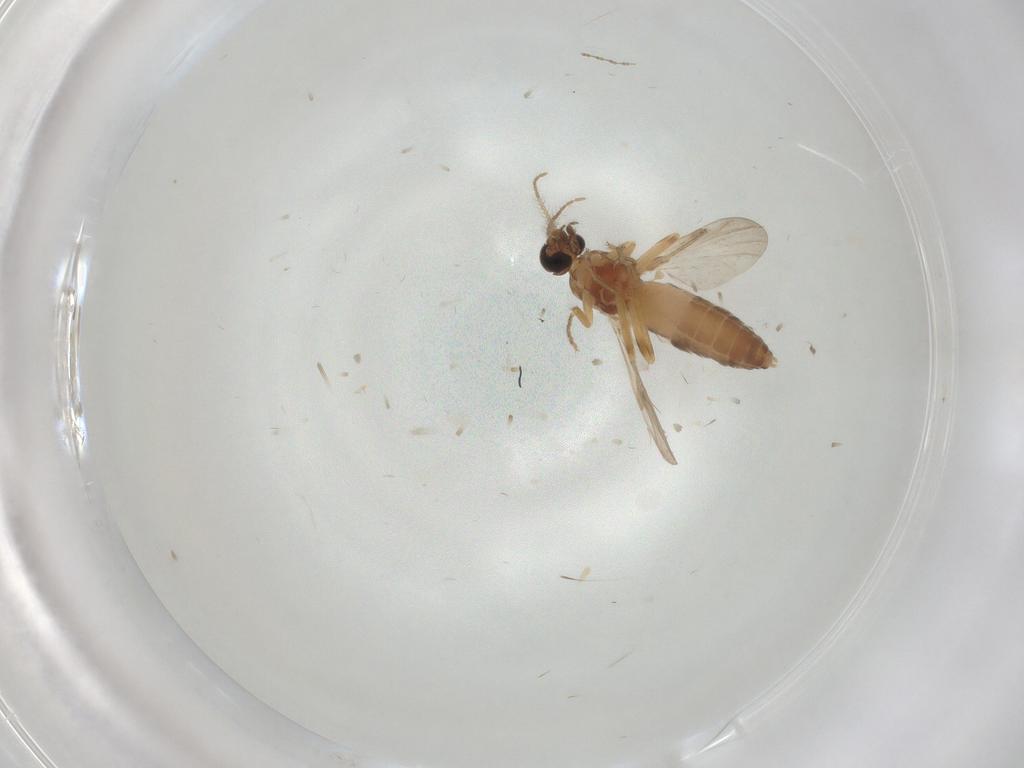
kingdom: Animalia
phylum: Arthropoda
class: Insecta
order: Diptera
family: Ceratopogonidae
